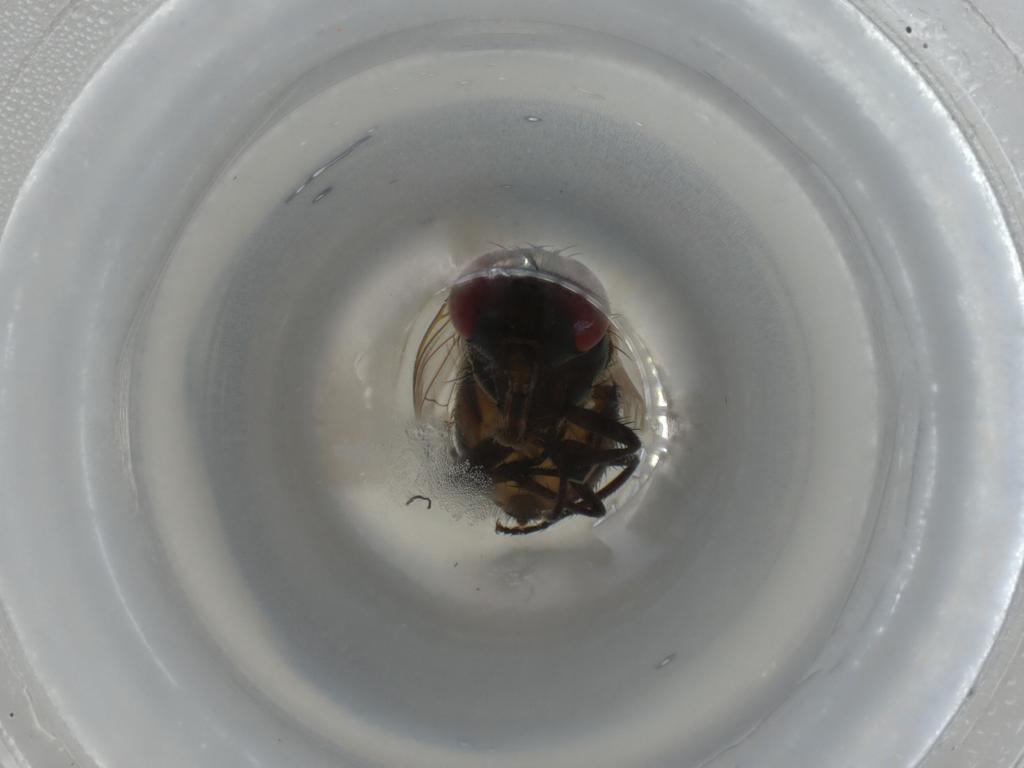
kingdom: Animalia
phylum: Arthropoda
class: Insecta
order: Diptera
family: Chloropidae
